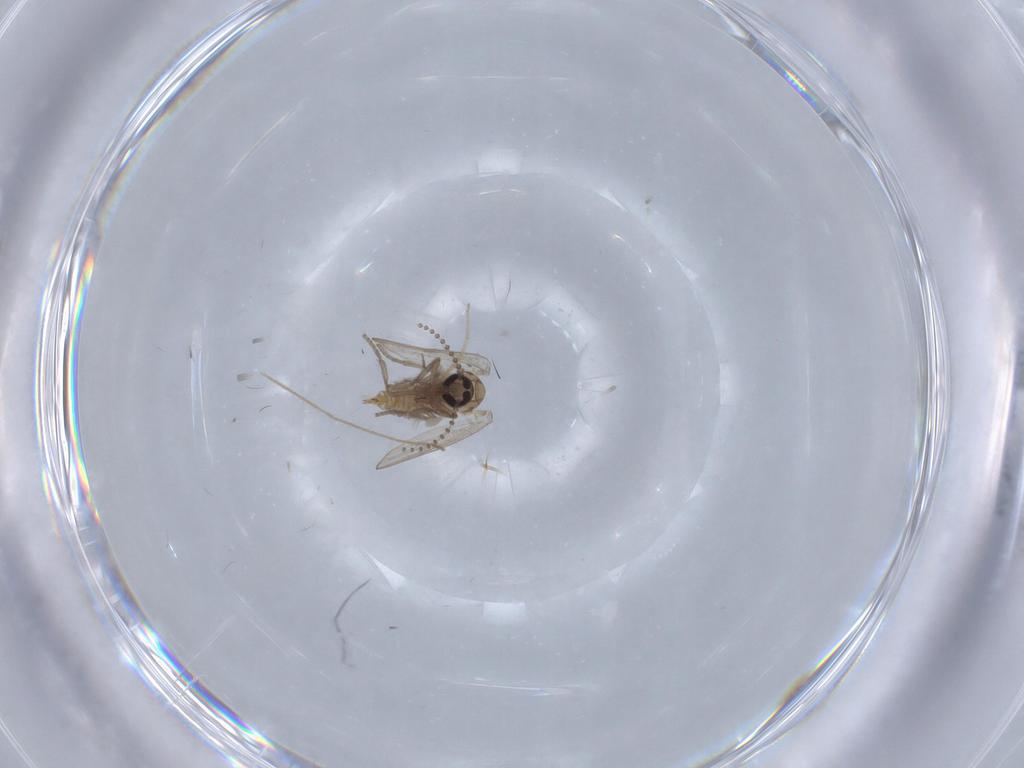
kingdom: Animalia
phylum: Arthropoda
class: Insecta
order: Diptera
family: Psychodidae
